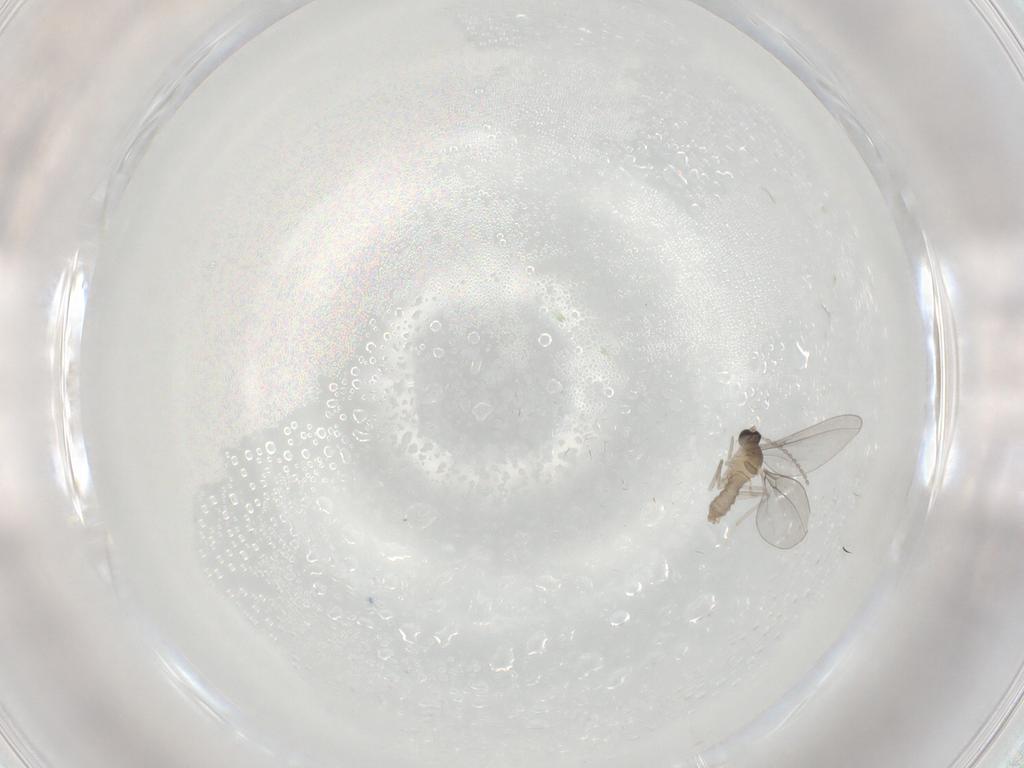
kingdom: Animalia
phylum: Arthropoda
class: Insecta
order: Diptera
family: Cecidomyiidae
